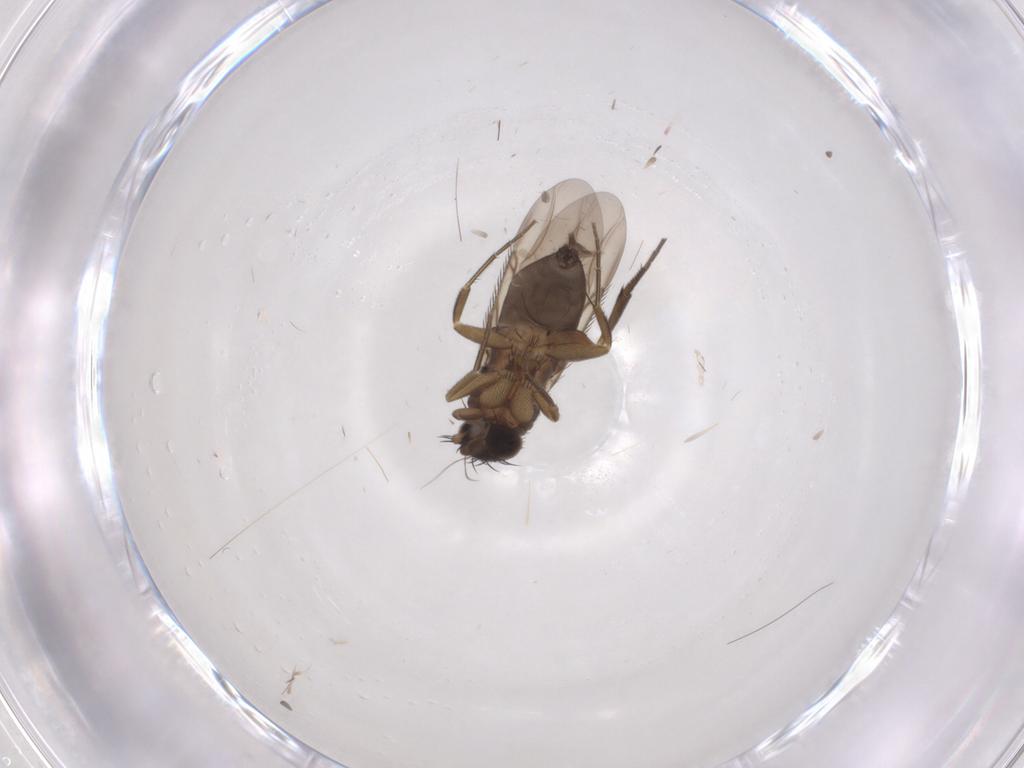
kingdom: Animalia
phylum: Arthropoda
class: Insecta
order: Diptera
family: Phoridae
